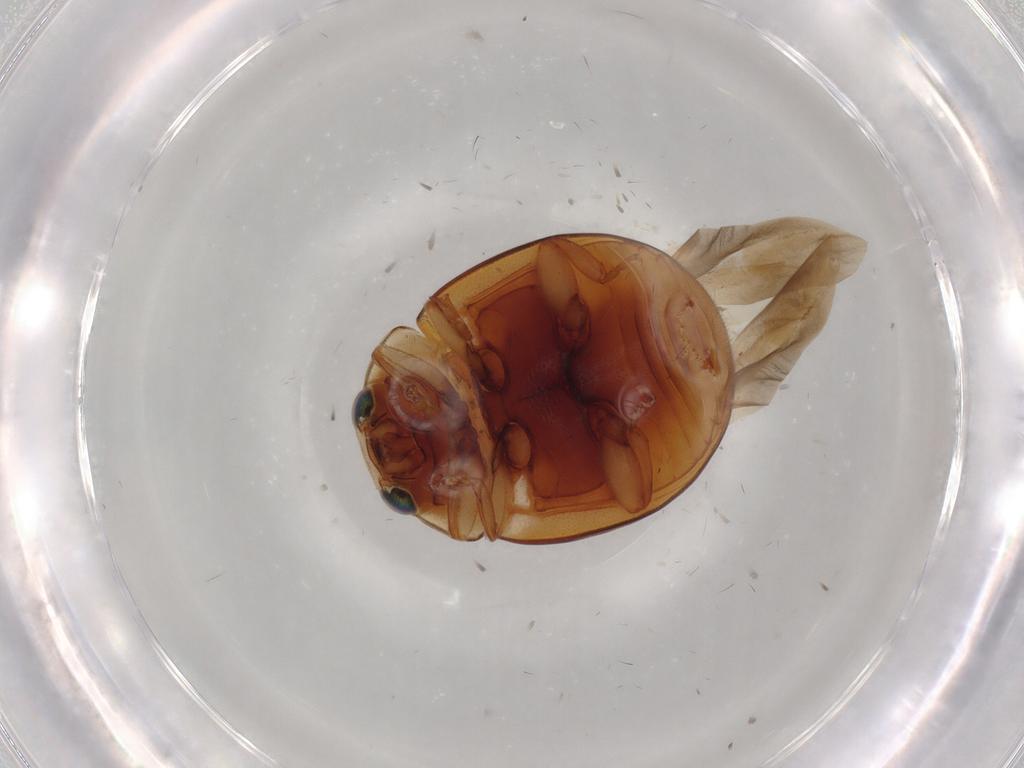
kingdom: Animalia
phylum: Arthropoda
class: Insecta
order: Coleoptera
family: Coccinellidae
